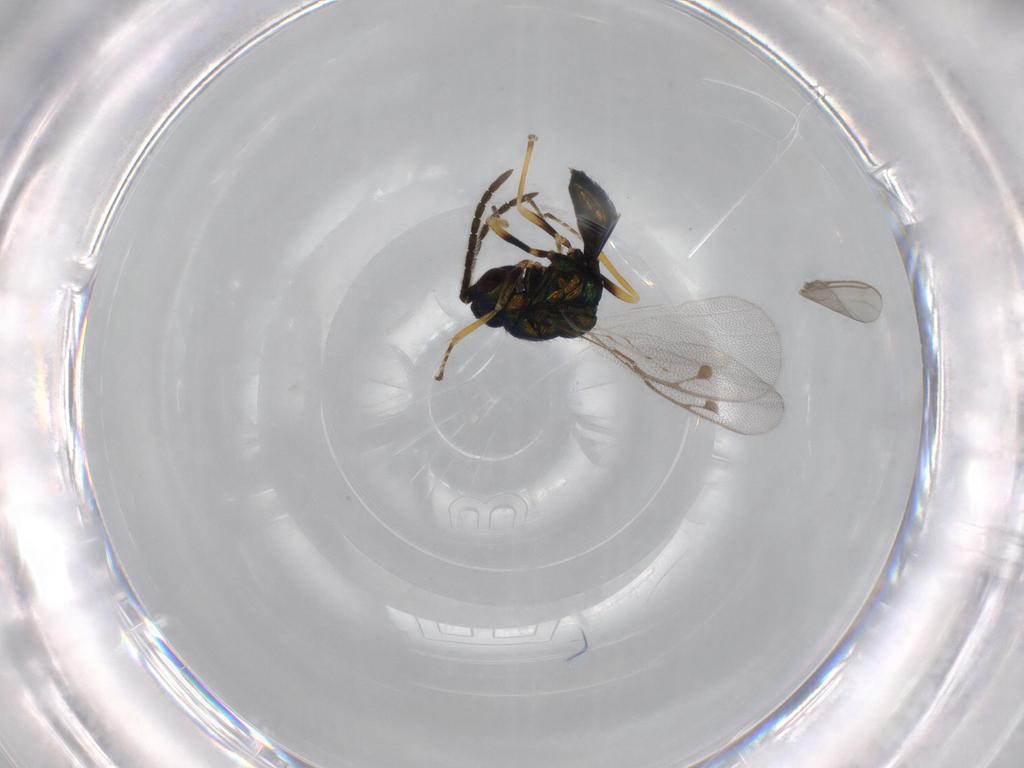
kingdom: Animalia
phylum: Arthropoda
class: Insecta
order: Hymenoptera
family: Pteromalidae
